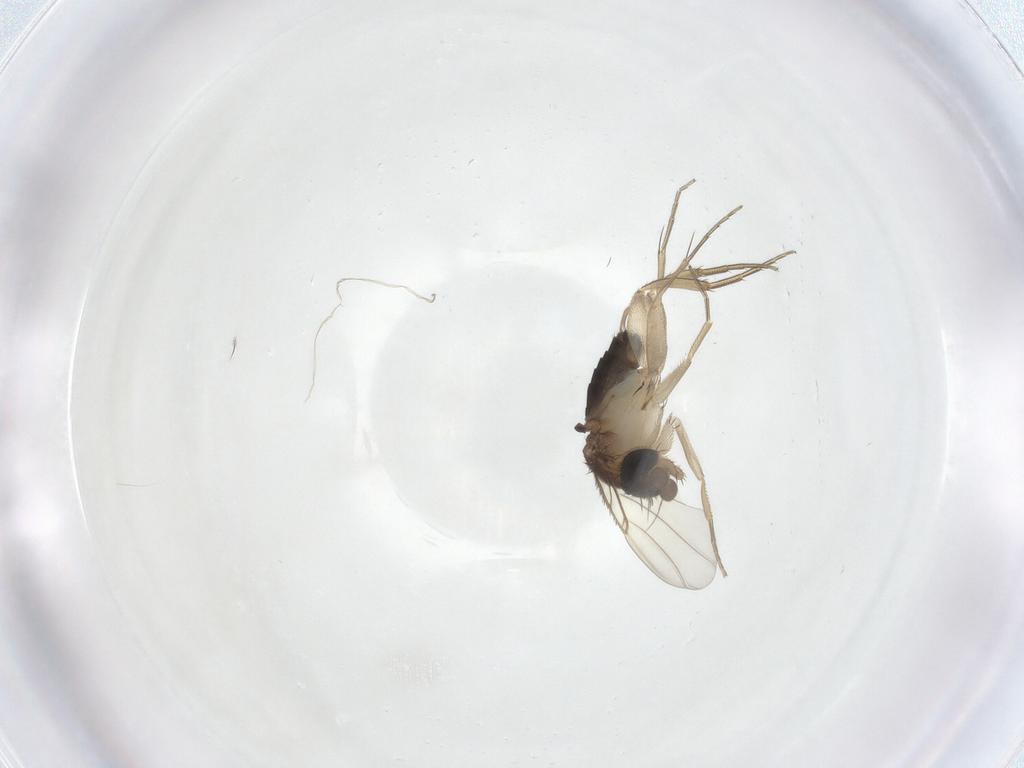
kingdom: Animalia
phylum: Arthropoda
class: Insecta
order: Diptera
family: Phoridae
